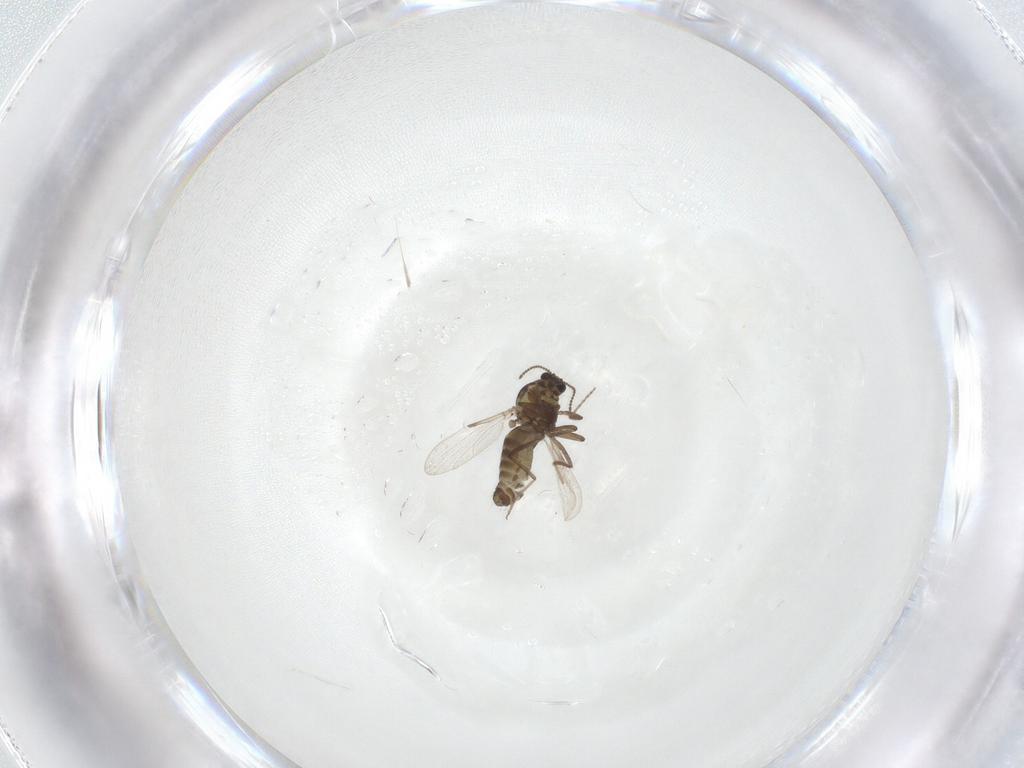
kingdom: Animalia
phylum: Arthropoda
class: Insecta
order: Diptera
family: Ceratopogonidae
